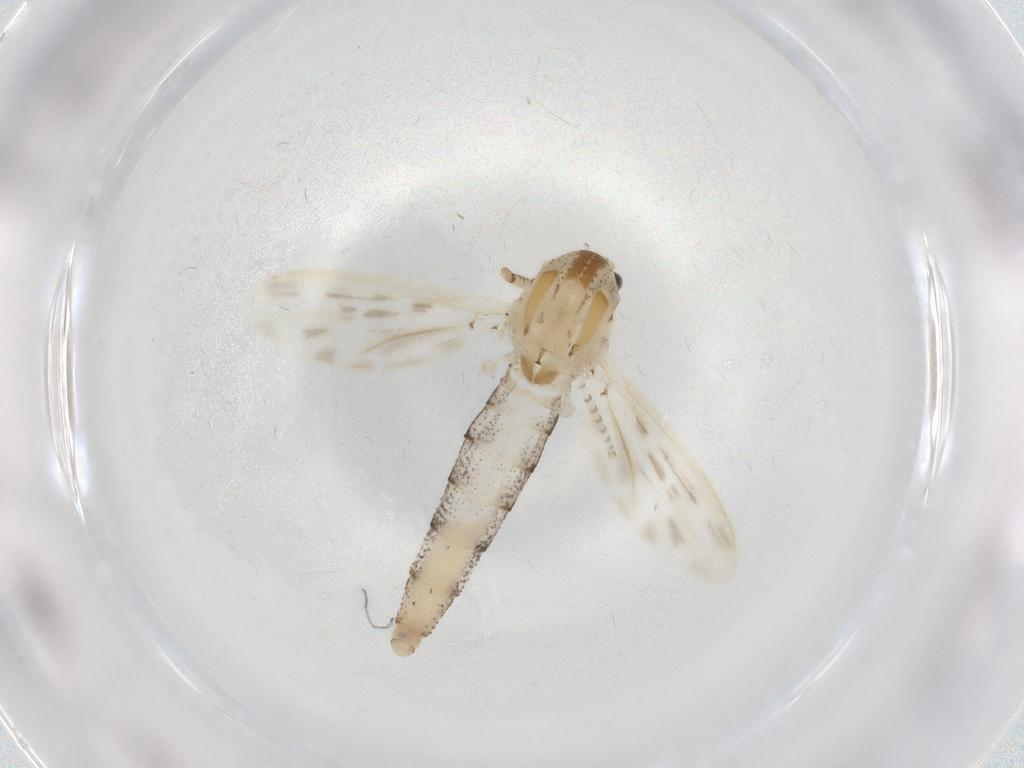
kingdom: Animalia
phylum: Arthropoda
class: Insecta
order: Diptera
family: Chaoboridae
